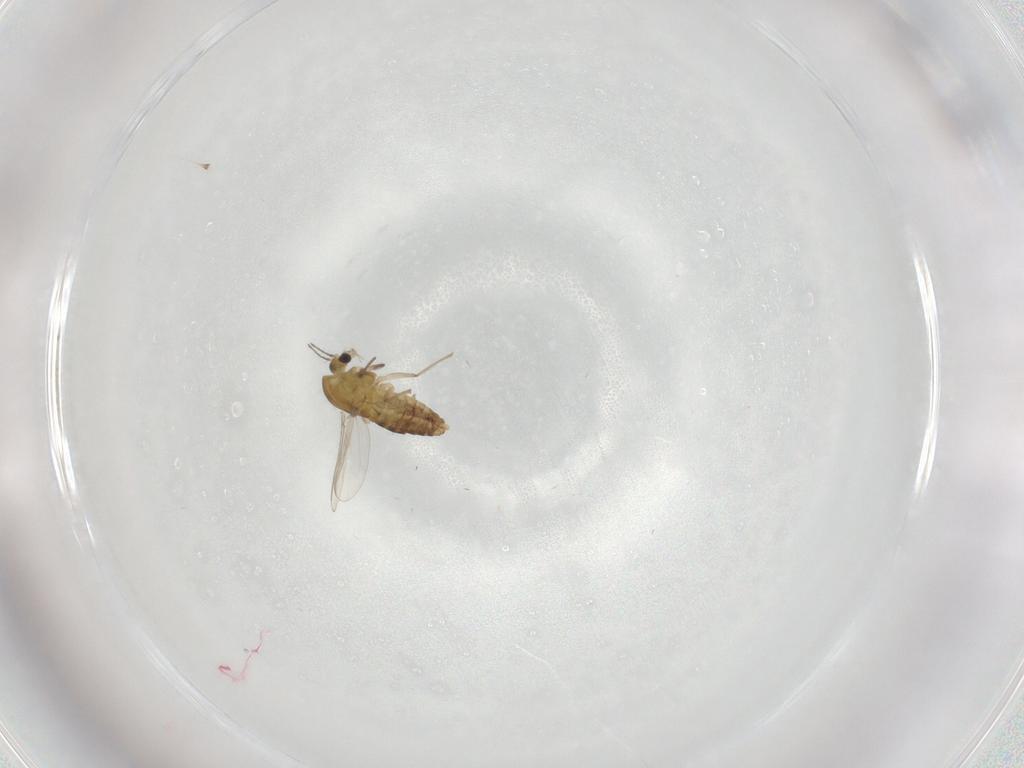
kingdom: Animalia
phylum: Arthropoda
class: Insecta
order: Diptera
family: Chironomidae
